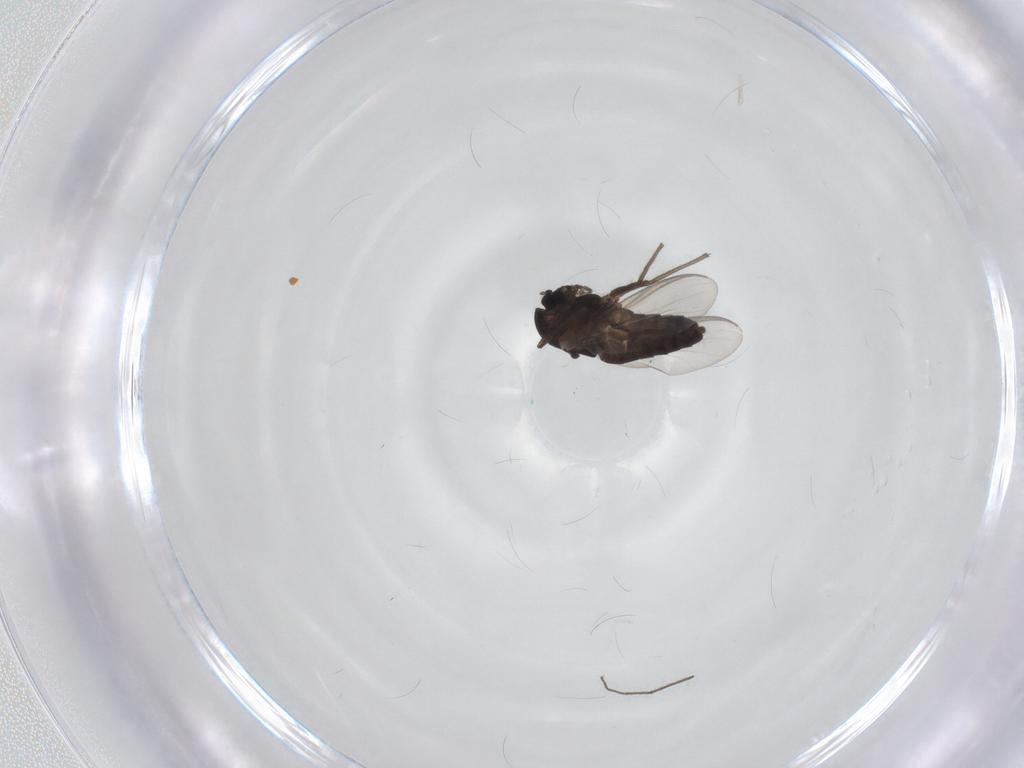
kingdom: Animalia
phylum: Arthropoda
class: Insecta
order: Diptera
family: Chironomidae
